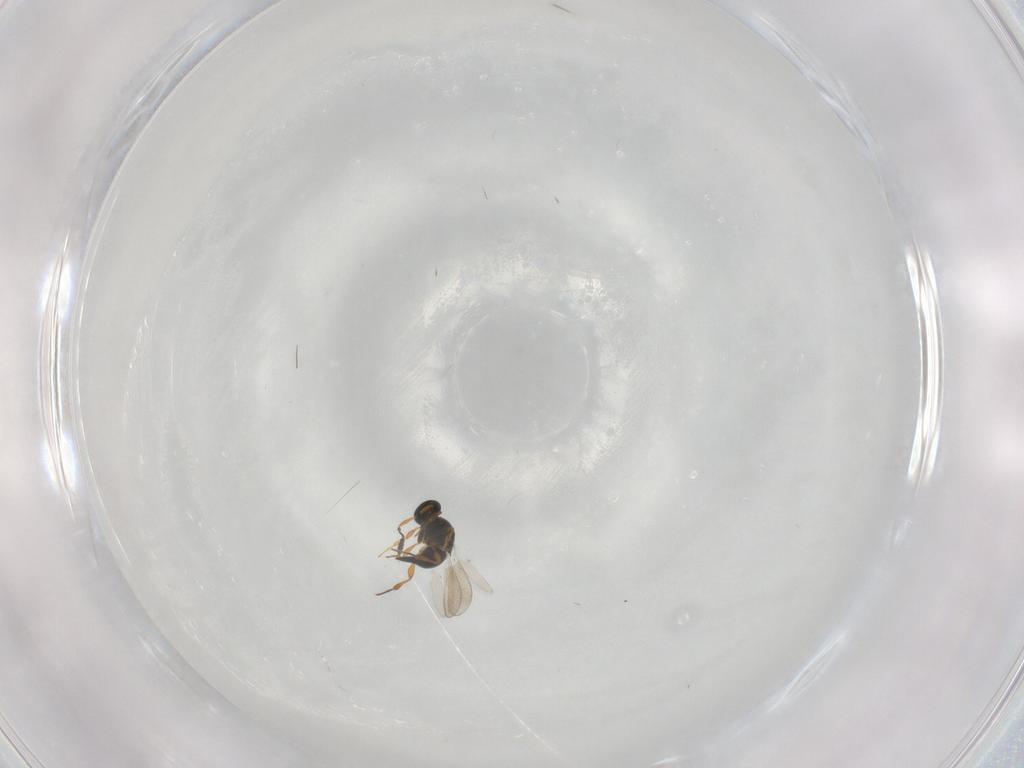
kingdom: Animalia
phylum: Arthropoda
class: Insecta
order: Hymenoptera
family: Platygastridae
